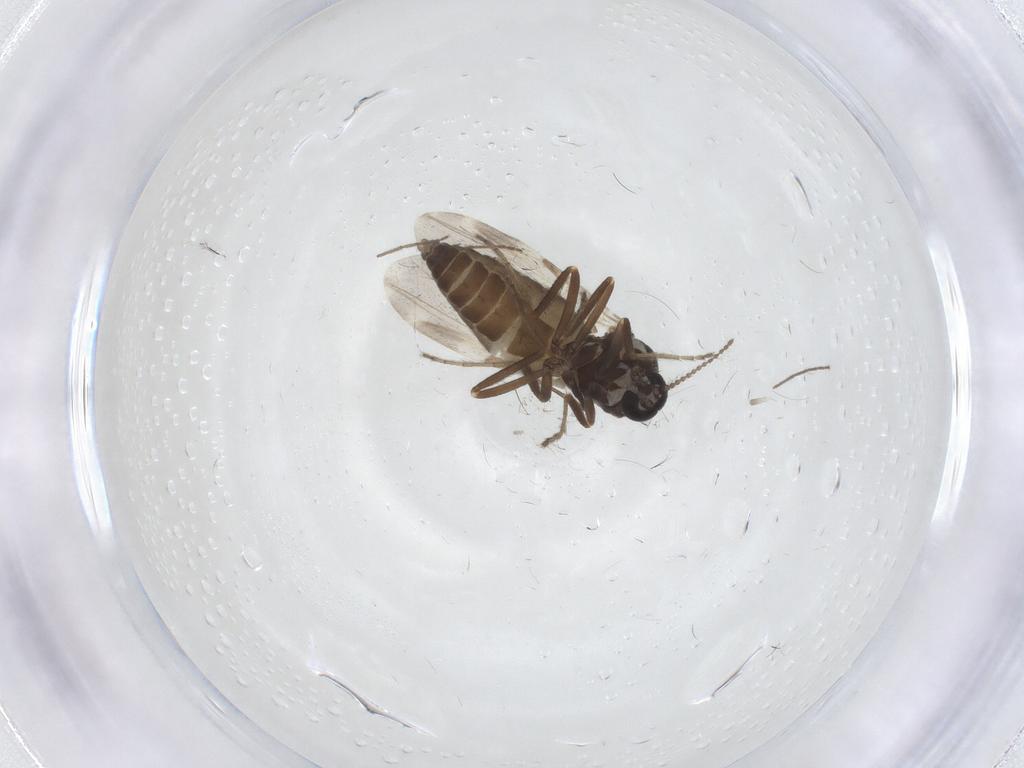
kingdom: Animalia
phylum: Arthropoda
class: Insecta
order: Diptera
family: Ceratopogonidae
